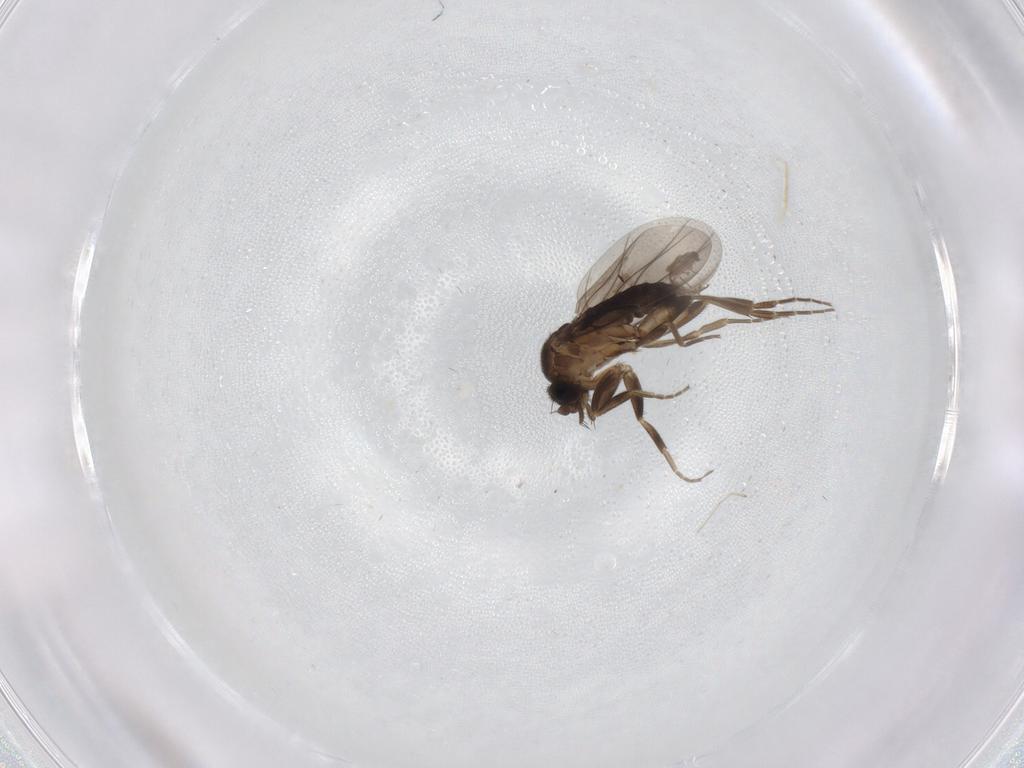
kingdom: Animalia
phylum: Arthropoda
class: Insecta
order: Diptera
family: Cecidomyiidae
